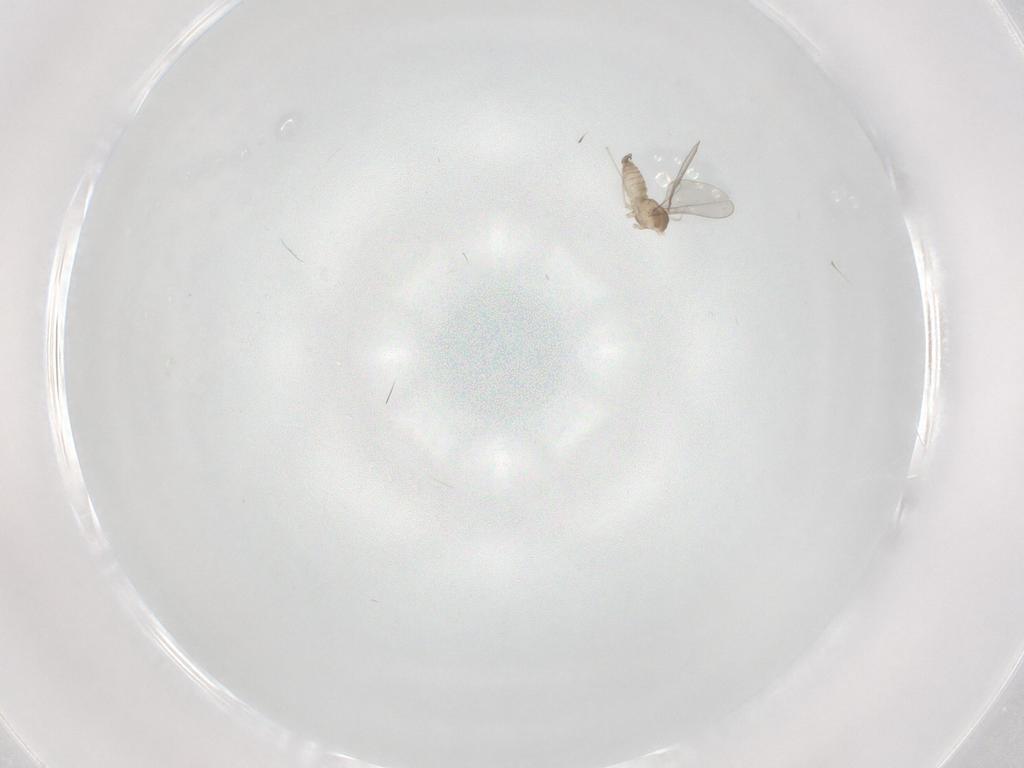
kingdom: Animalia
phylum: Arthropoda
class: Insecta
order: Diptera
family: Cecidomyiidae
